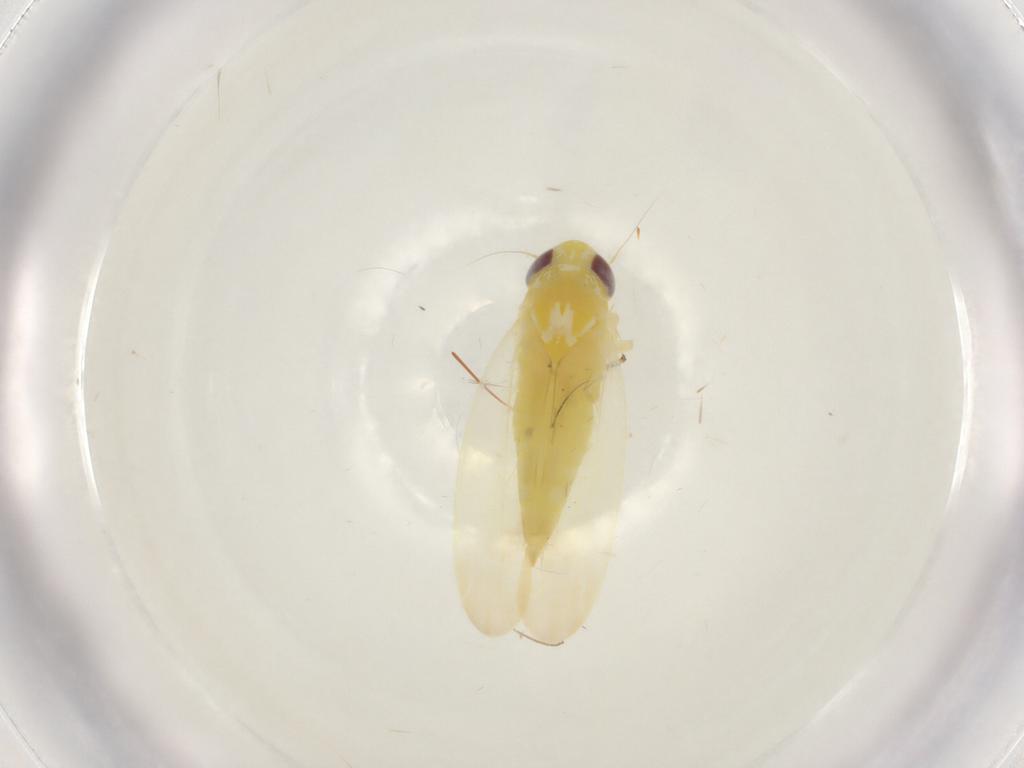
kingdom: Animalia
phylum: Arthropoda
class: Insecta
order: Hemiptera
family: Cicadellidae
